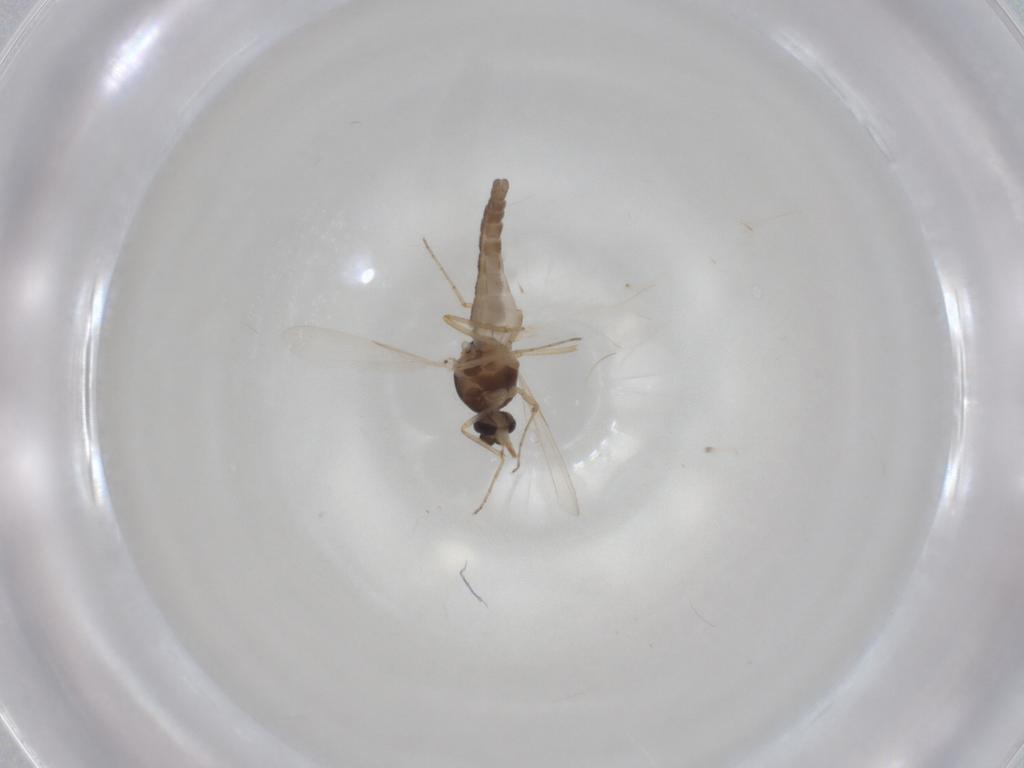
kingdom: Animalia
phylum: Arthropoda
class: Insecta
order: Diptera
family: Ceratopogonidae
